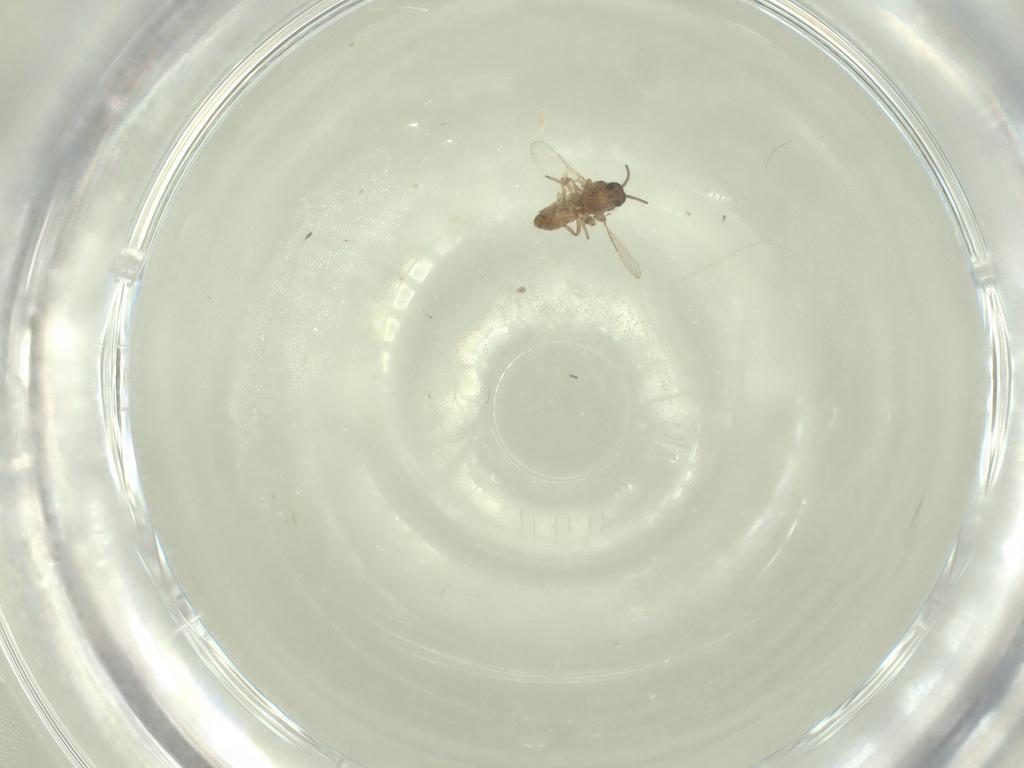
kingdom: Animalia
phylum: Arthropoda
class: Insecta
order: Diptera
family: Ceratopogonidae
